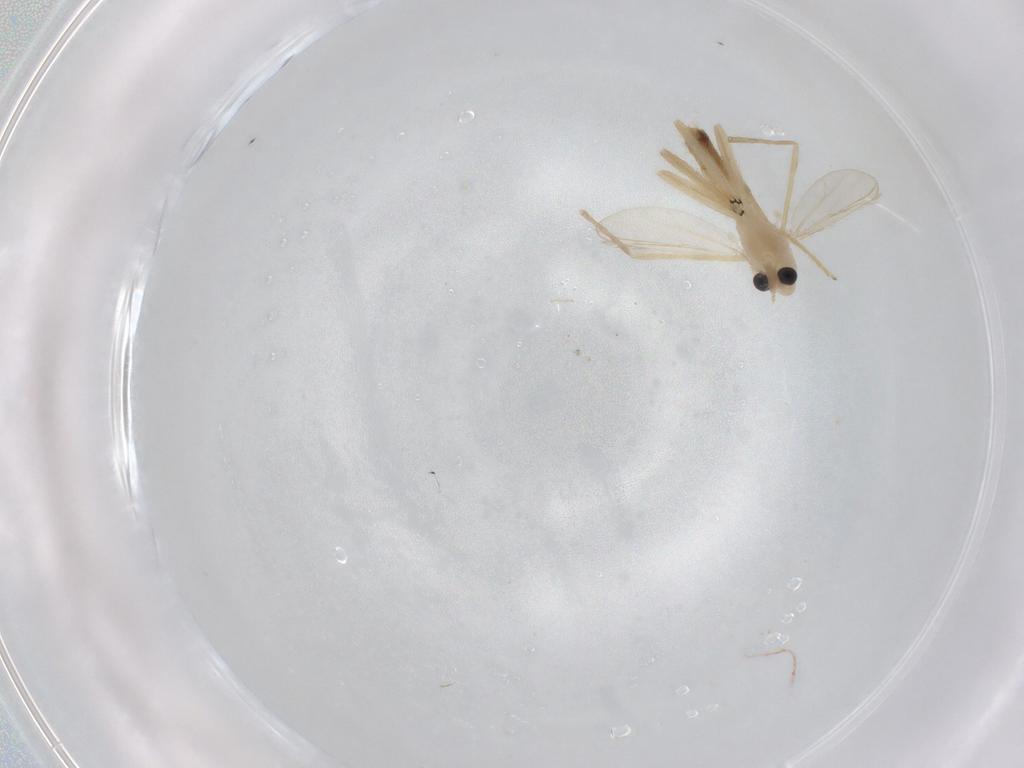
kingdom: Animalia
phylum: Arthropoda
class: Insecta
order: Diptera
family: Chironomidae
